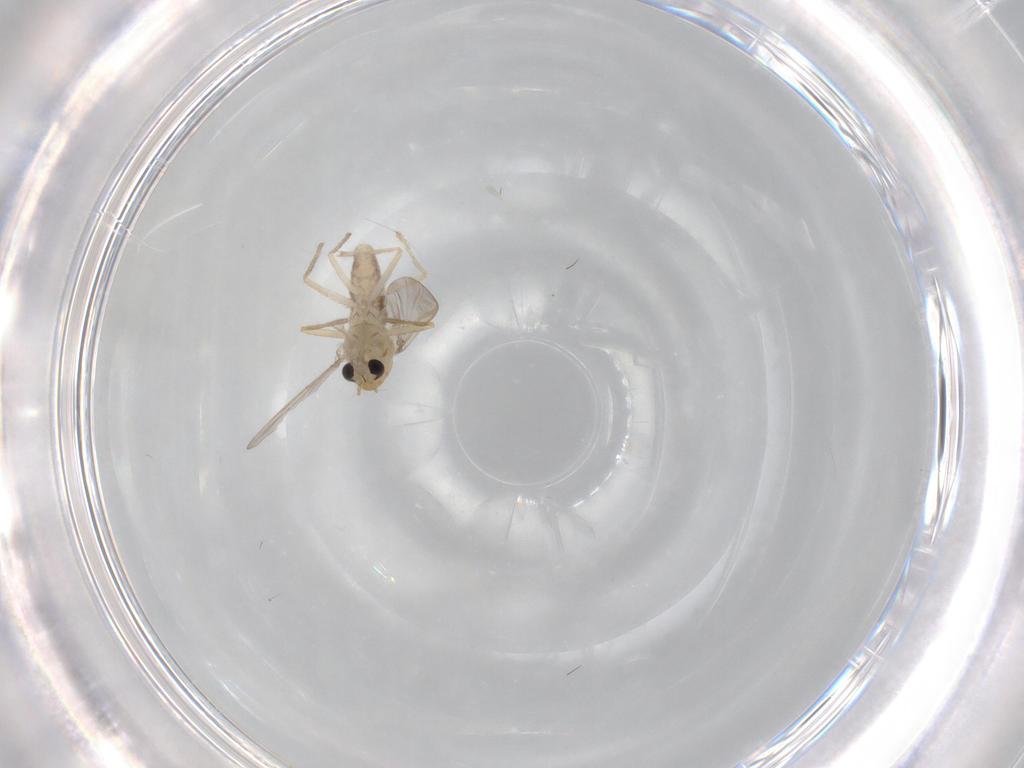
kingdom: Animalia
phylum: Arthropoda
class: Insecta
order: Diptera
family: Chironomidae
